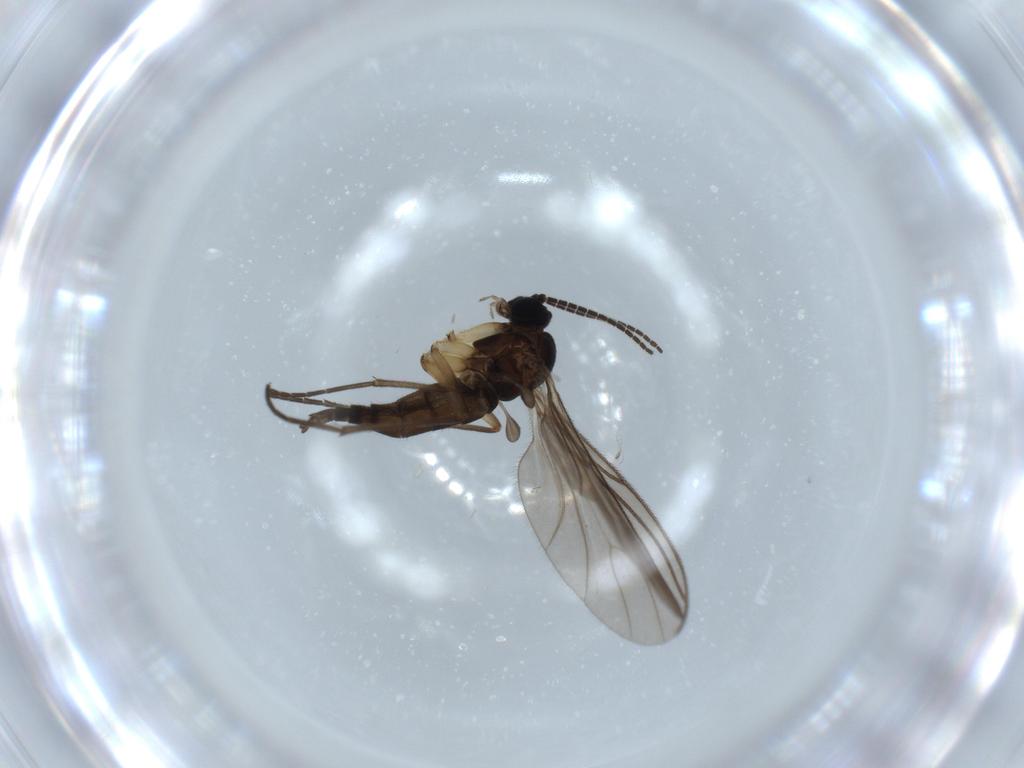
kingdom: Animalia
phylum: Arthropoda
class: Insecta
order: Diptera
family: Sciaridae
